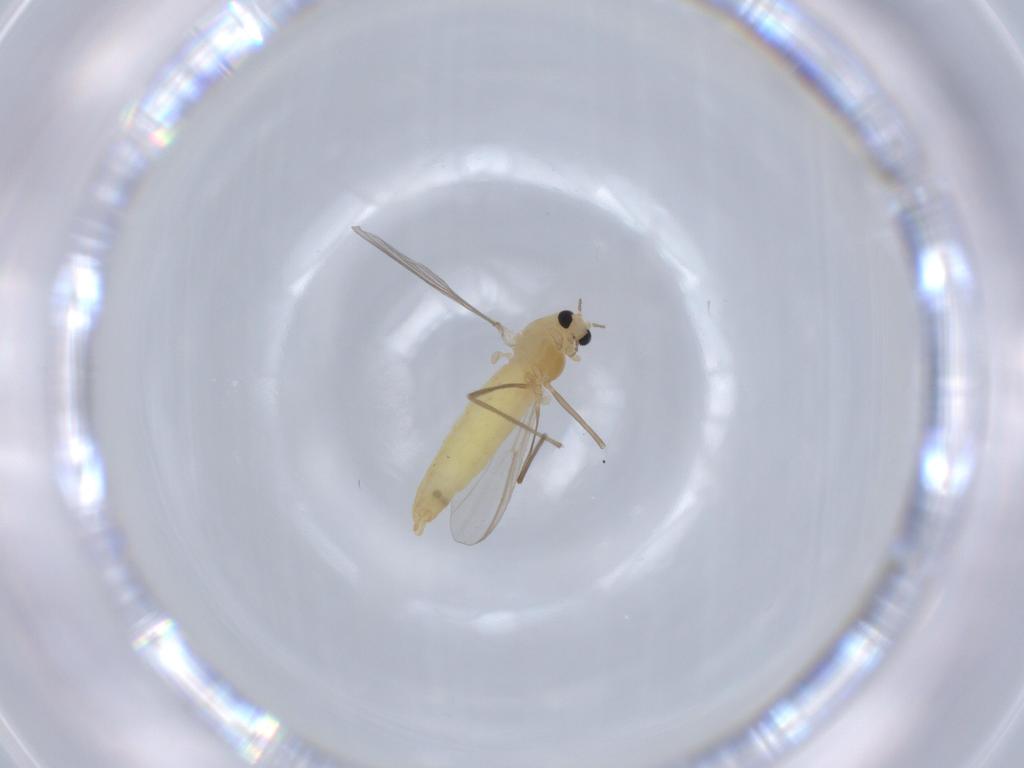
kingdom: Animalia
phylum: Arthropoda
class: Insecta
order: Diptera
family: Chironomidae
